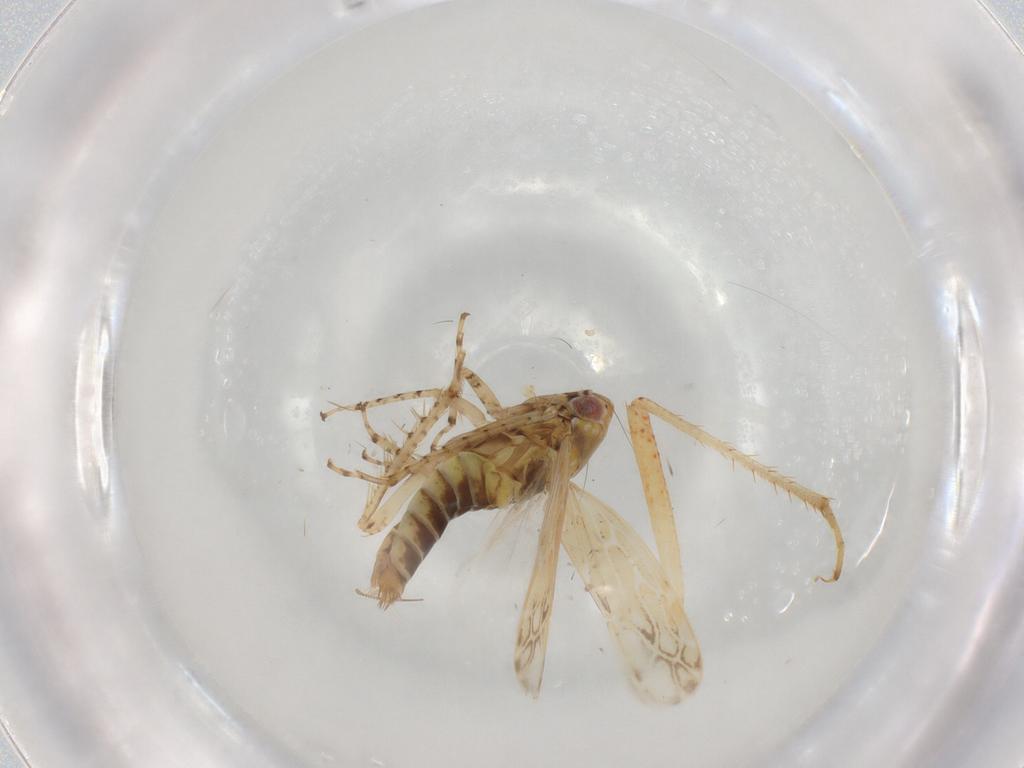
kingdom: Animalia
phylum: Arthropoda
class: Insecta
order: Hemiptera
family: Cicadellidae
